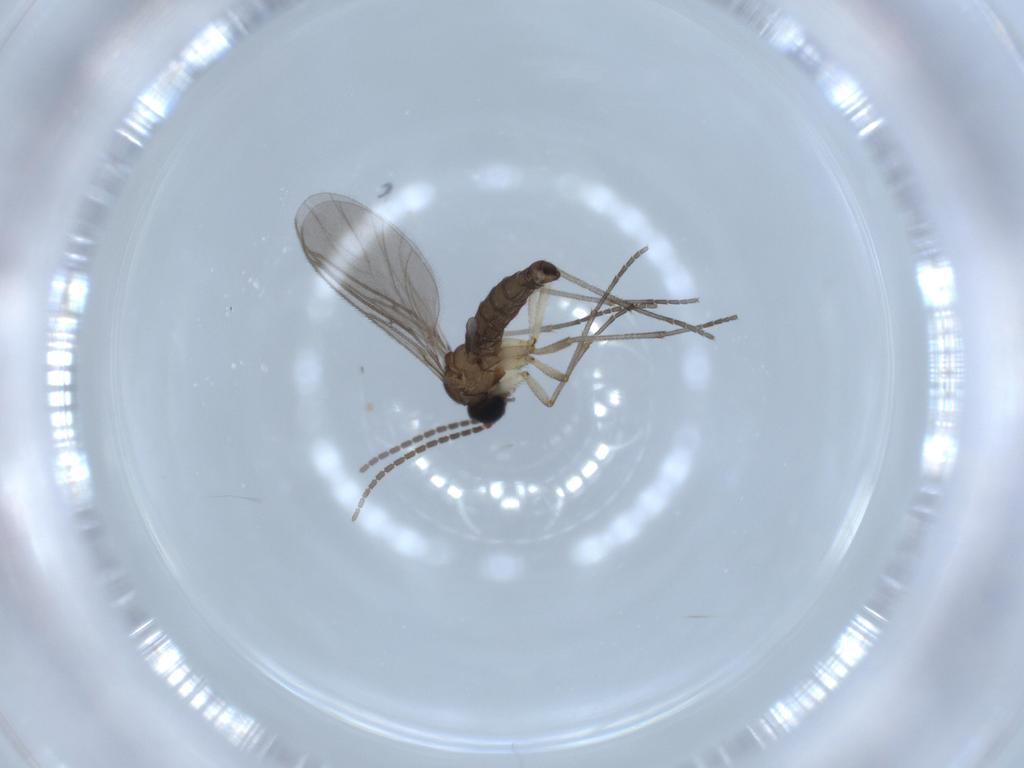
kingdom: Animalia
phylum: Arthropoda
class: Insecta
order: Diptera
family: Sciaridae
